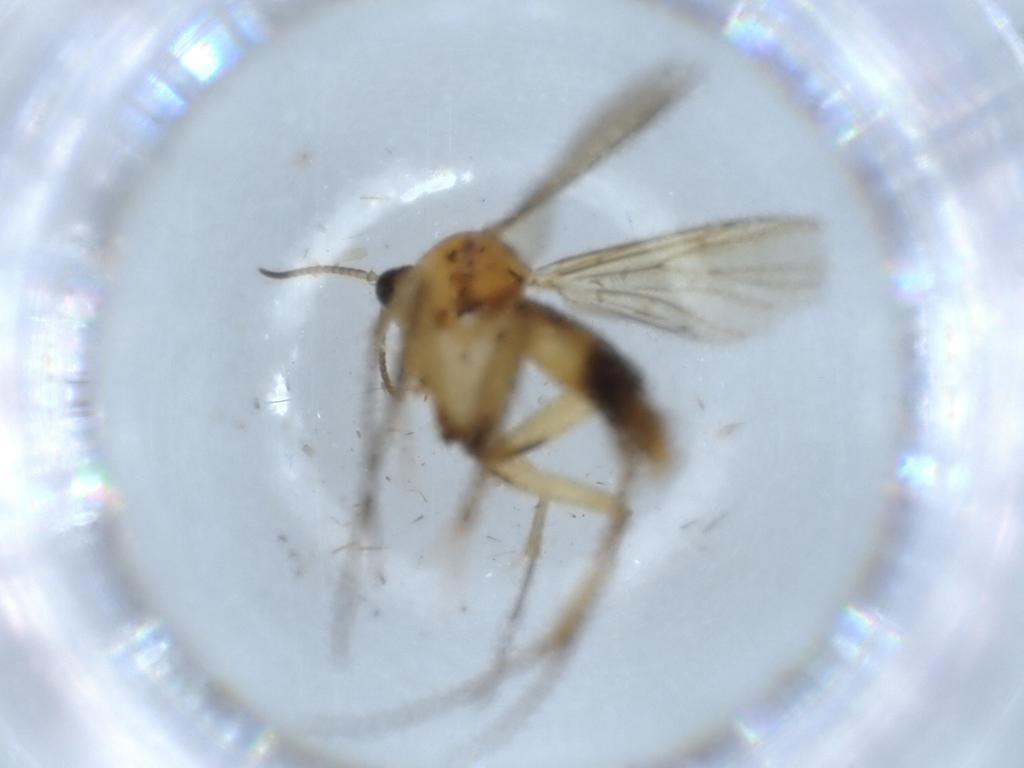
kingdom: Animalia
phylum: Arthropoda
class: Insecta
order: Diptera
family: Sciaridae
